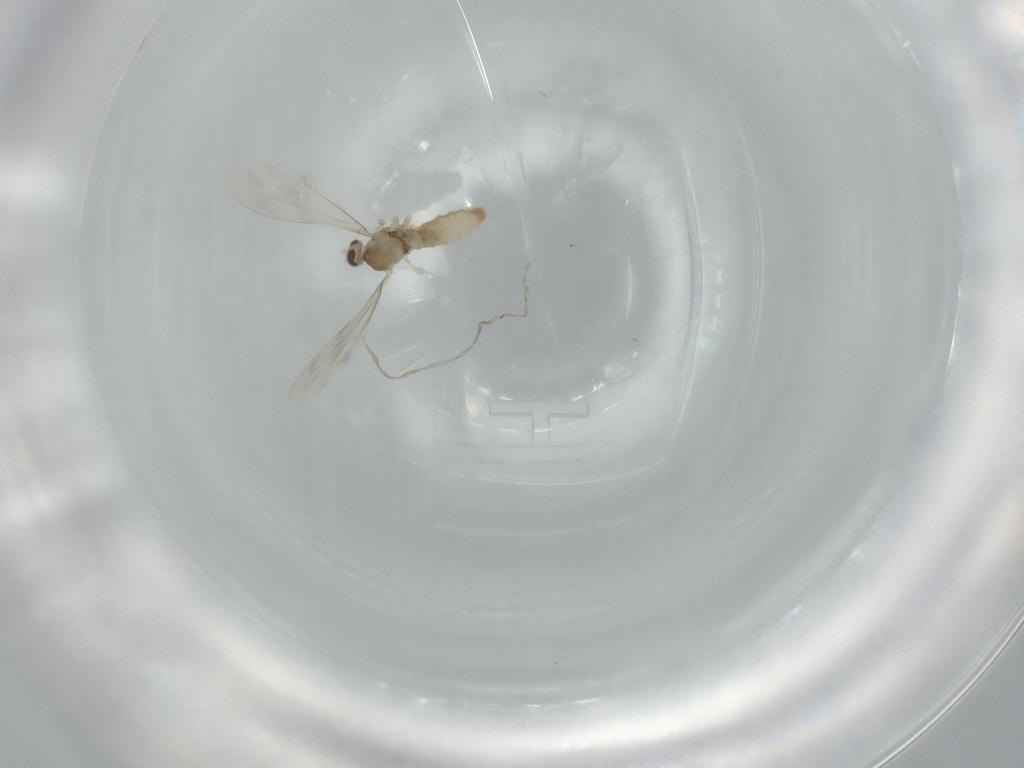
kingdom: Animalia
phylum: Arthropoda
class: Insecta
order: Diptera
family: Cecidomyiidae
